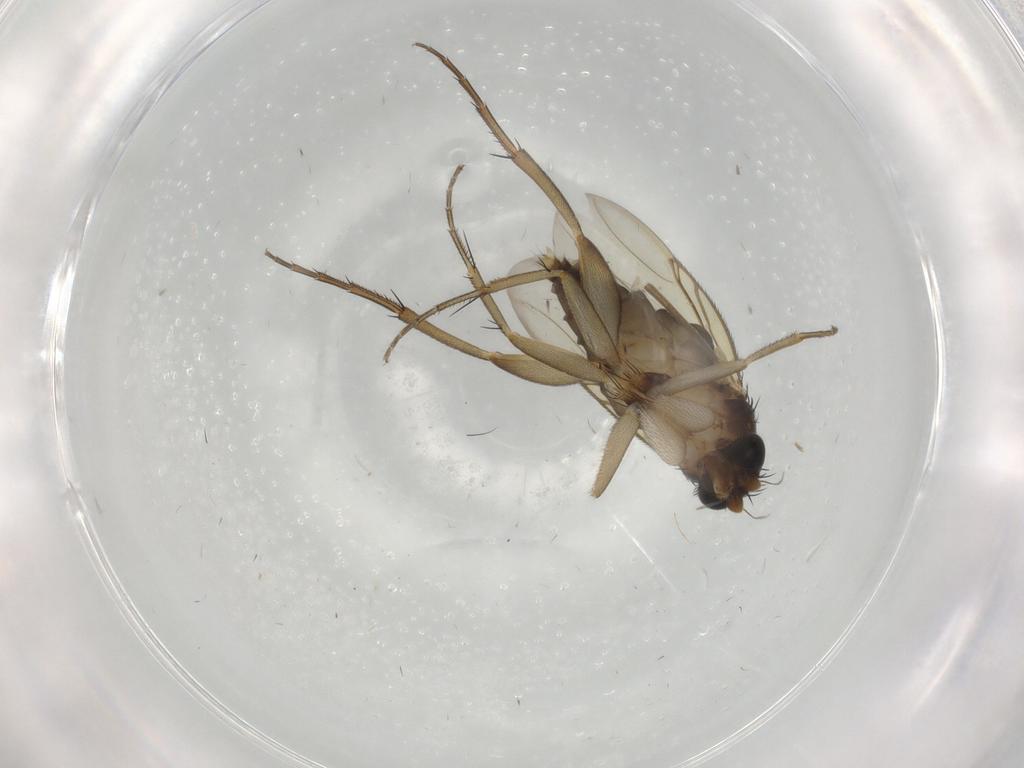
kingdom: Animalia
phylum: Arthropoda
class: Insecta
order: Diptera
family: Phoridae
